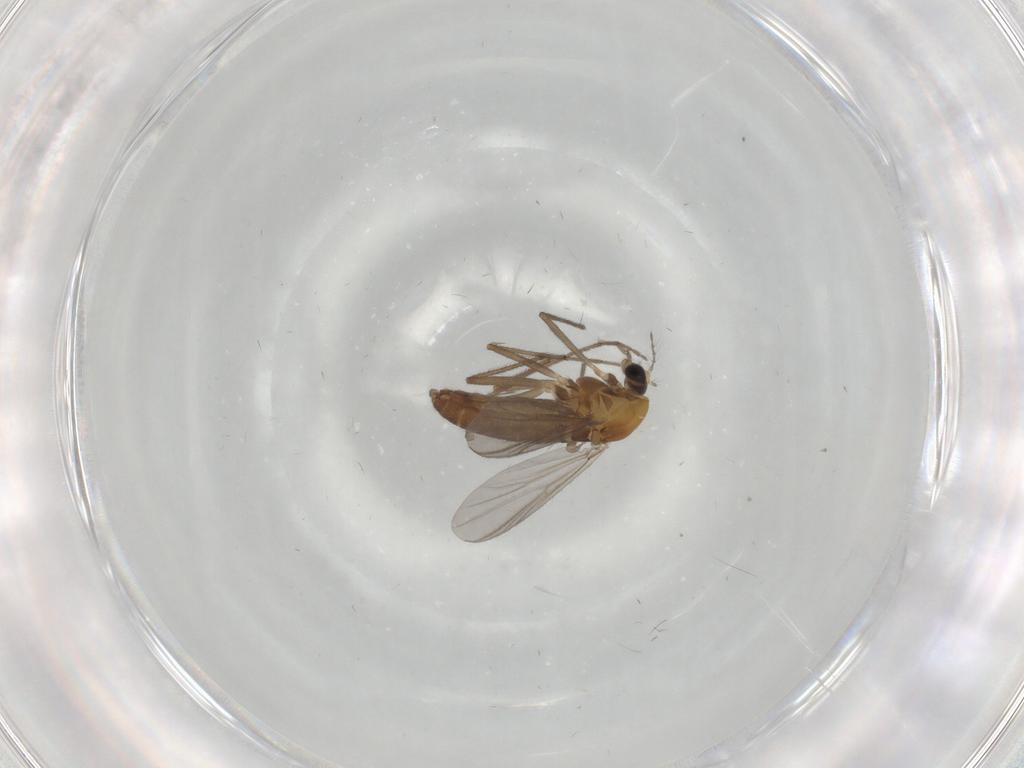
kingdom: Animalia
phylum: Arthropoda
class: Insecta
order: Diptera
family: Chironomidae
